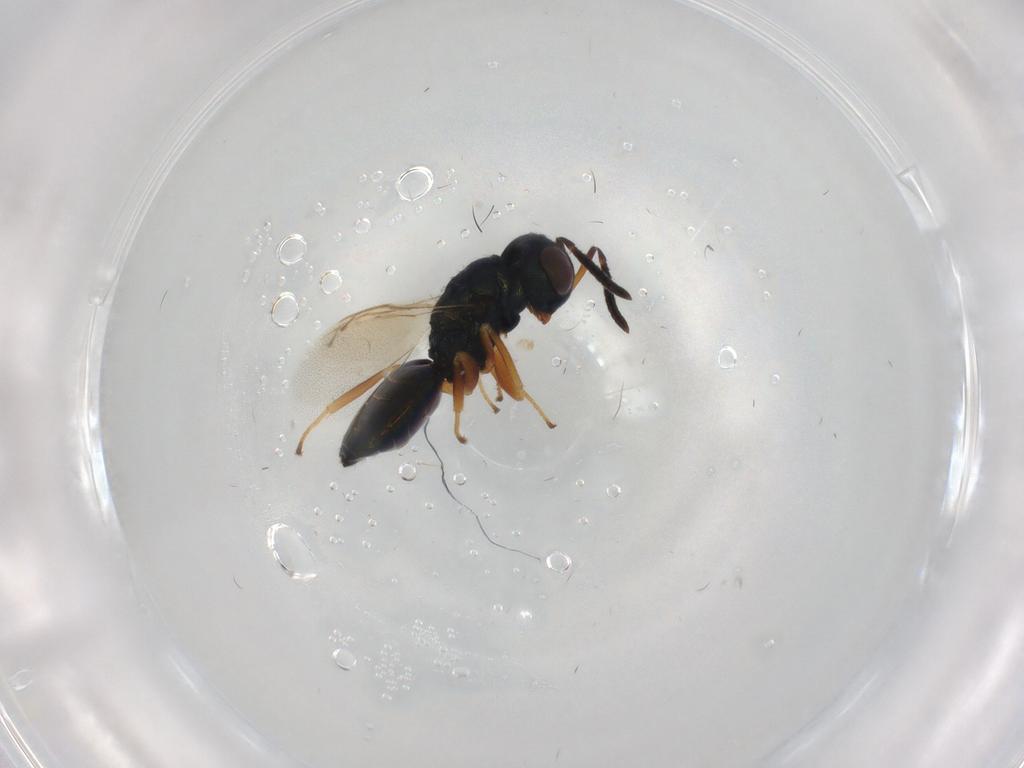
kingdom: Animalia
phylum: Arthropoda
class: Insecta
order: Hymenoptera
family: Pteromalidae
